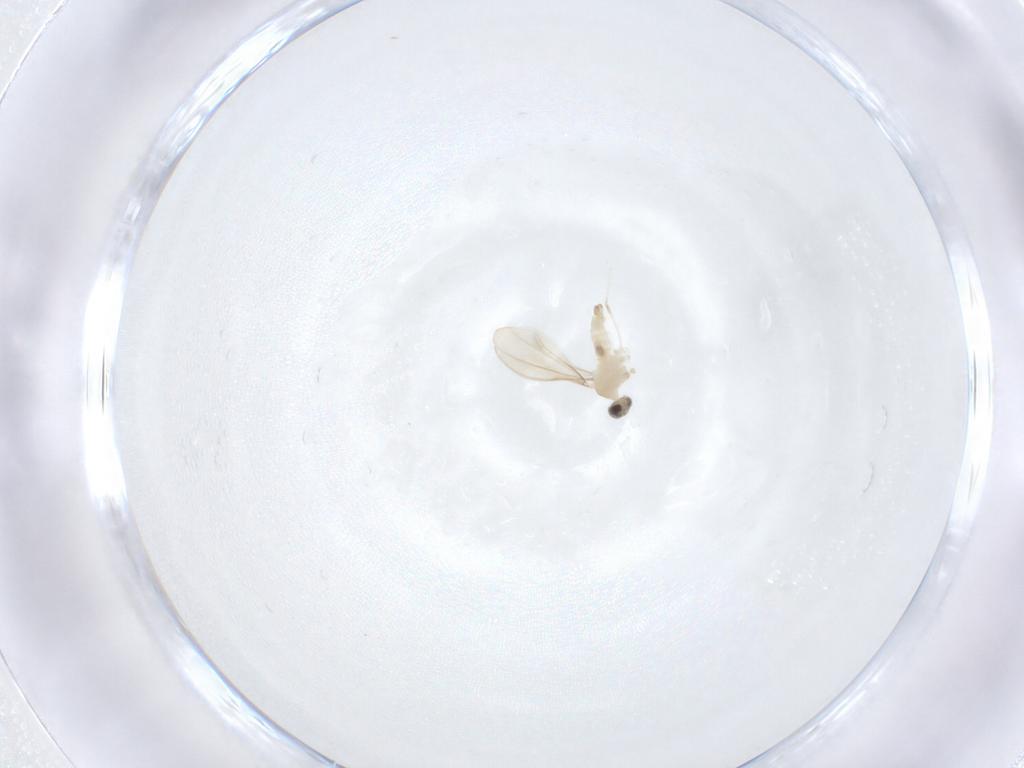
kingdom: Animalia
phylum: Arthropoda
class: Insecta
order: Diptera
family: Cecidomyiidae
